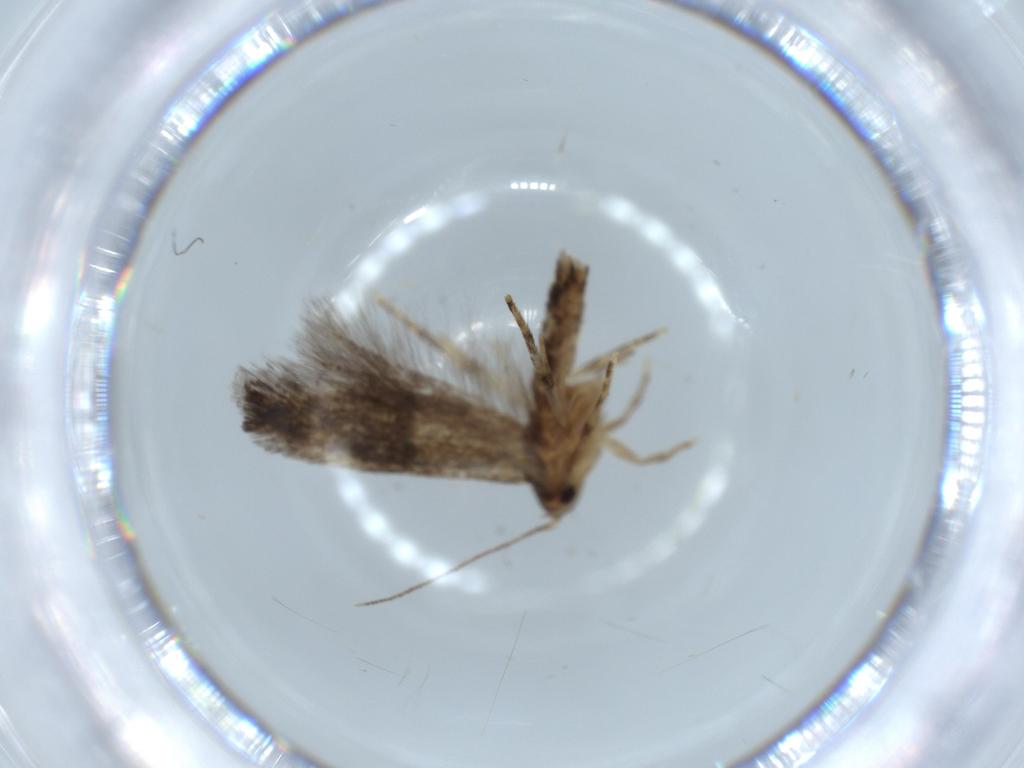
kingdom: Animalia
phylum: Arthropoda
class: Insecta
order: Lepidoptera
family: Gelechiidae
